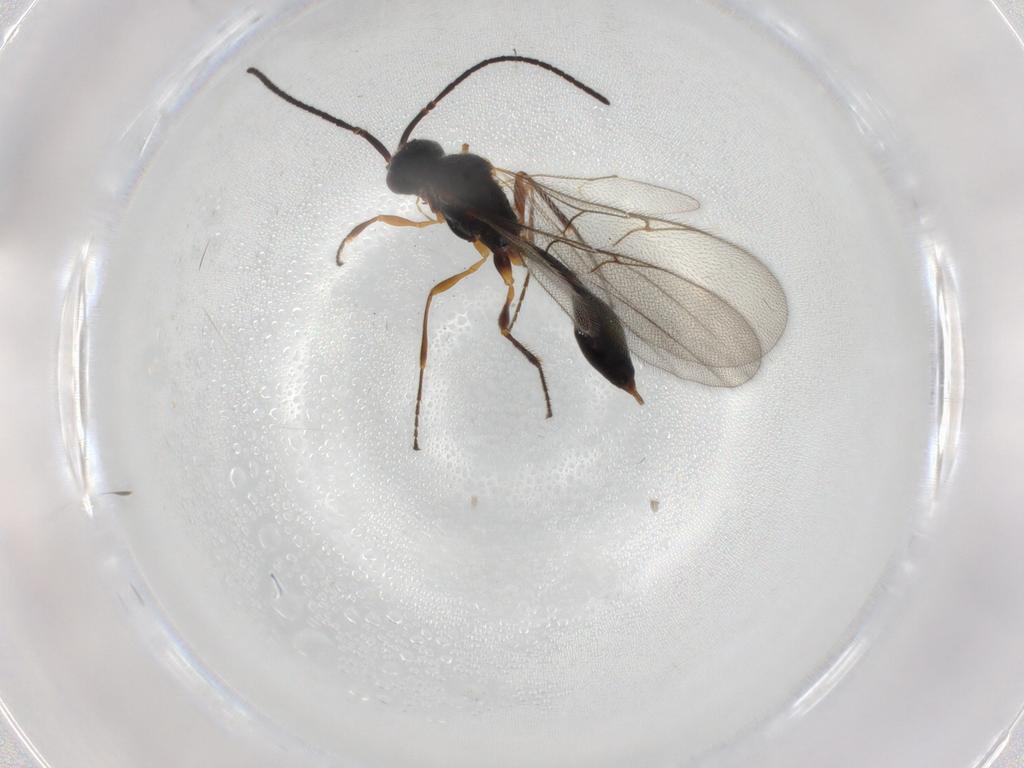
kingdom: Animalia
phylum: Arthropoda
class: Insecta
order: Hymenoptera
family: Diapriidae
